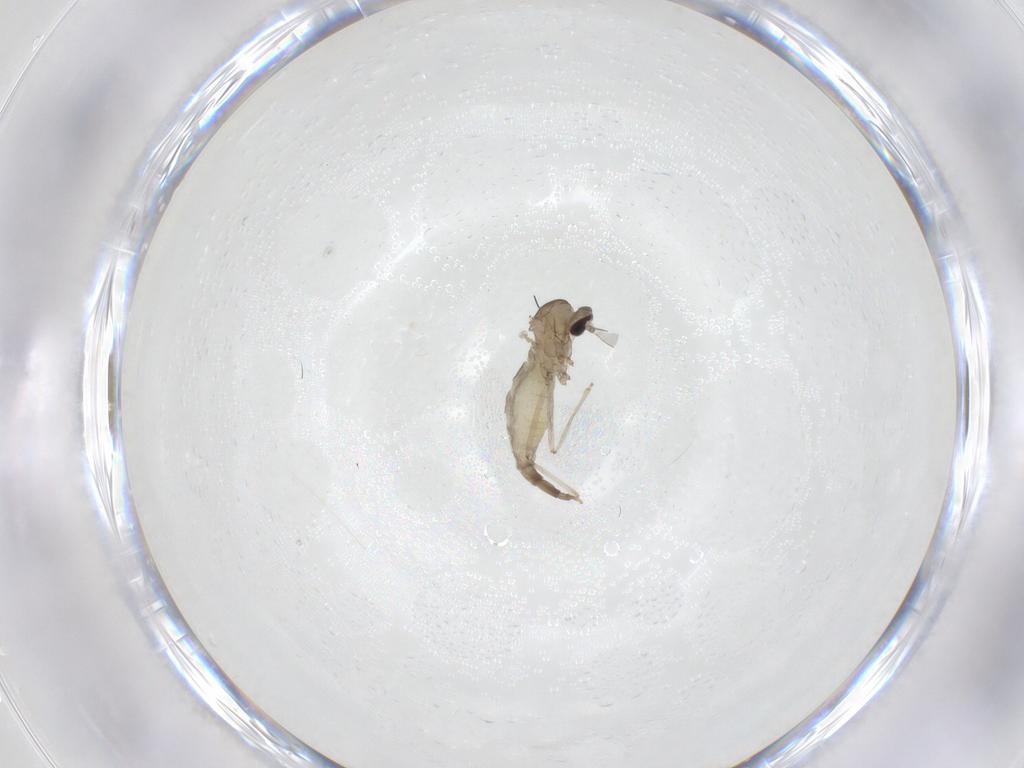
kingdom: Animalia
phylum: Arthropoda
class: Insecta
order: Diptera
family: Cecidomyiidae
